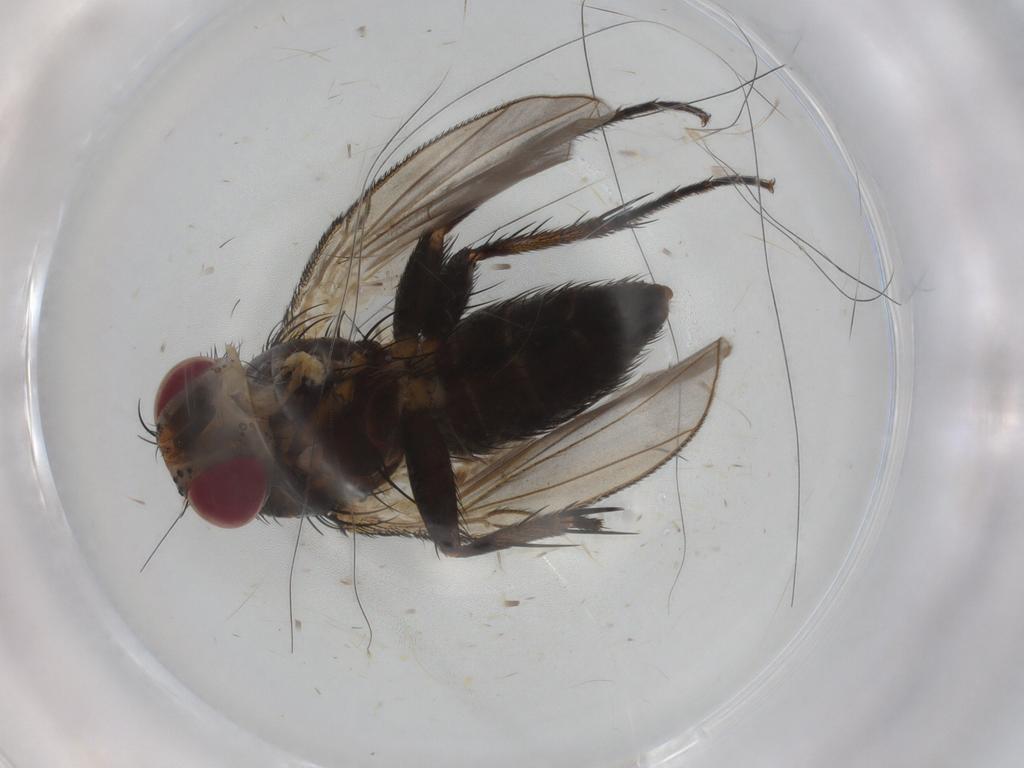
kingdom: Animalia
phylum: Arthropoda
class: Insecta
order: Diptera
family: Tachinidae
